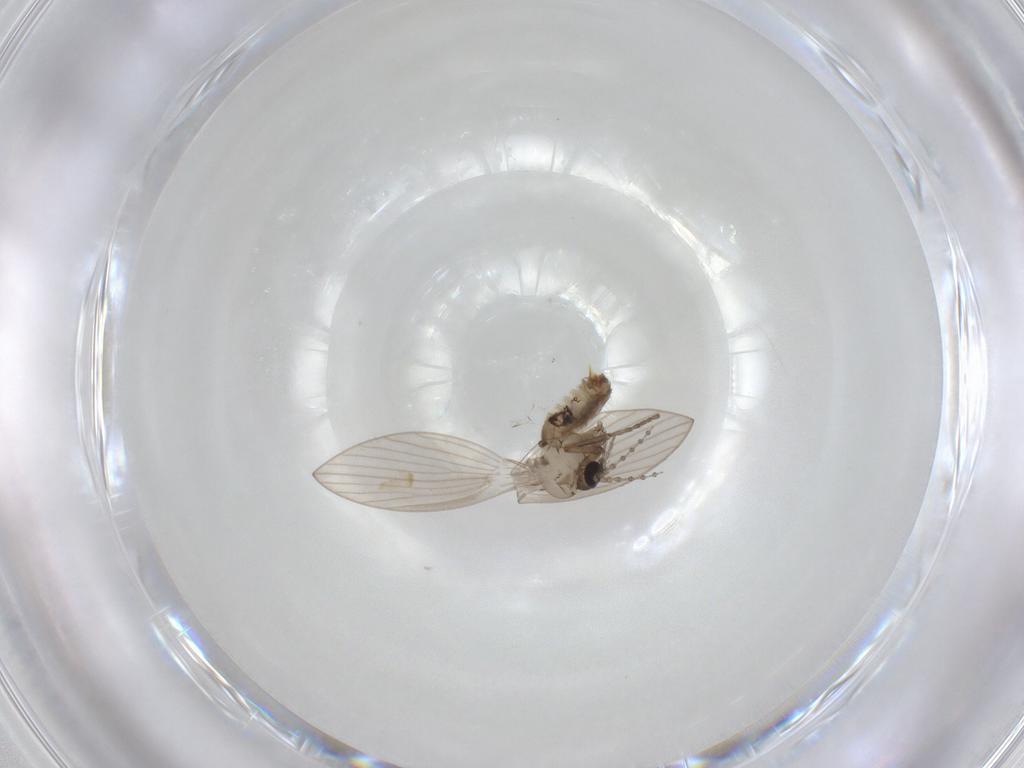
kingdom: Animalia
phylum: Arthropoda
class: Insecta
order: Diptera
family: Psychodidae
